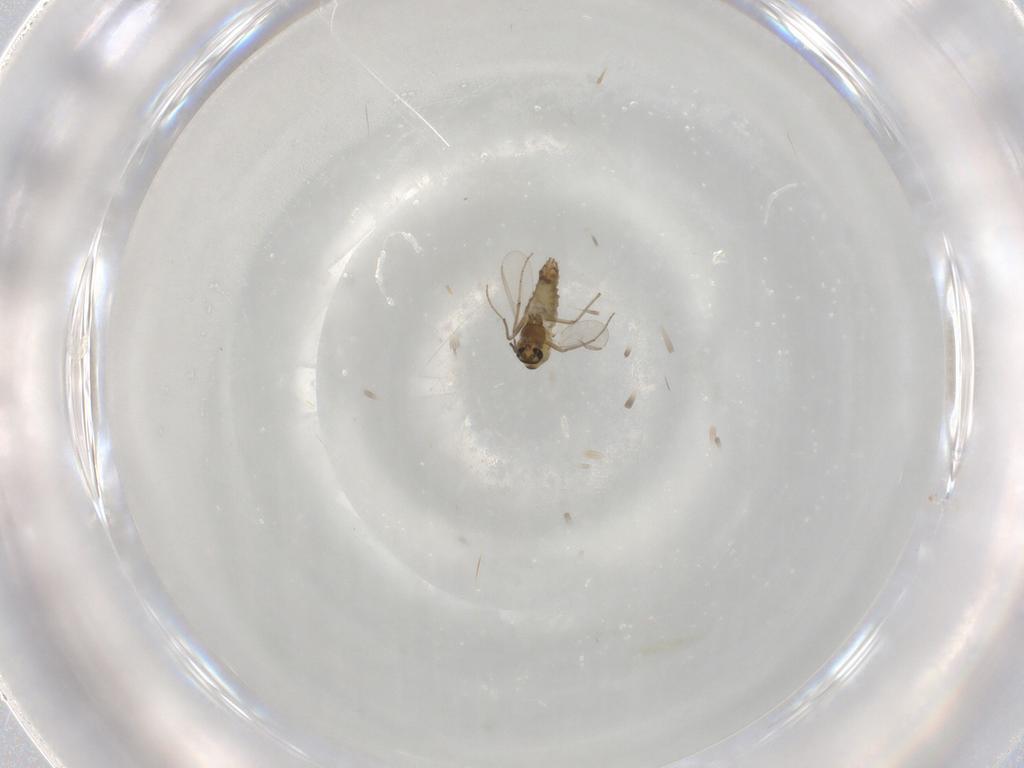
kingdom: Animalia
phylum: Arthropoda
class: Insecta
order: Diptera
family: Chironomidae
